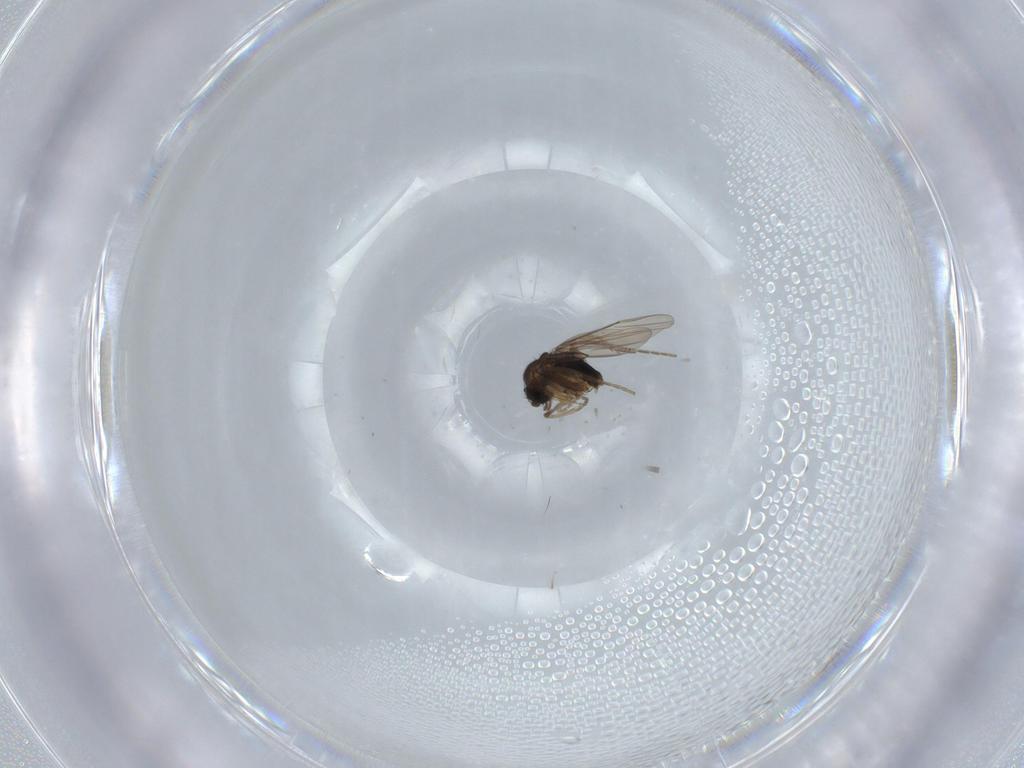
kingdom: Animalia
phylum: Arthropoda
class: Insecta
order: Diptera
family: Phoridae
